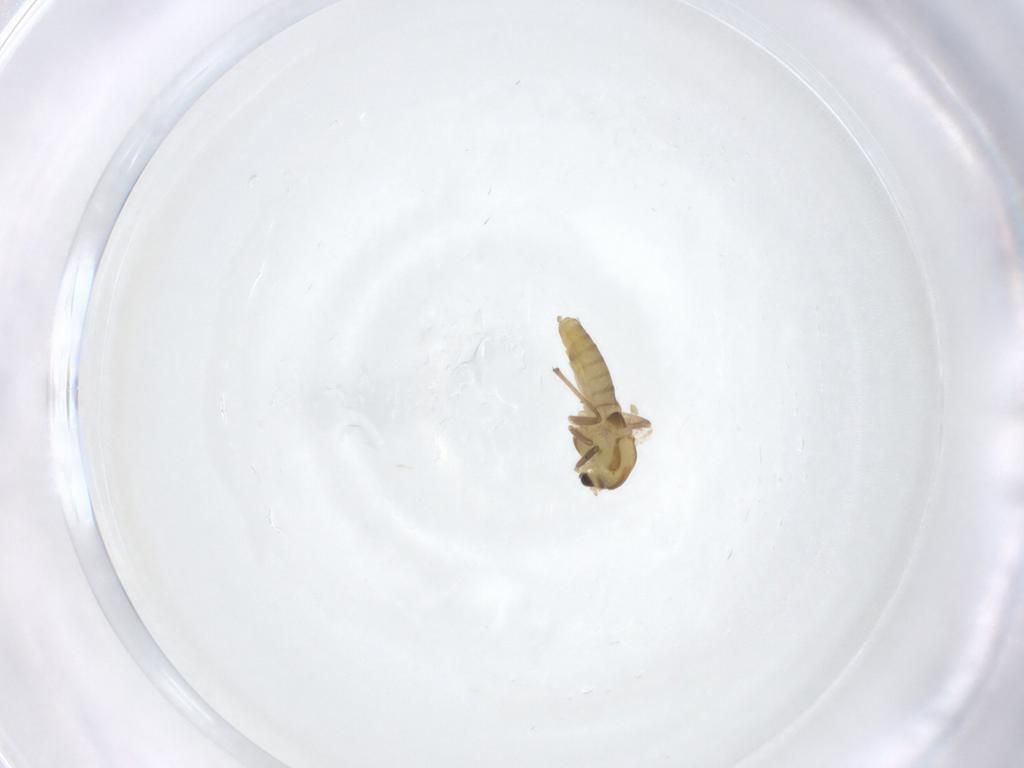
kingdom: Animalia
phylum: Arthropoda
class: Insecta
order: Diptera
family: Chironomidae
